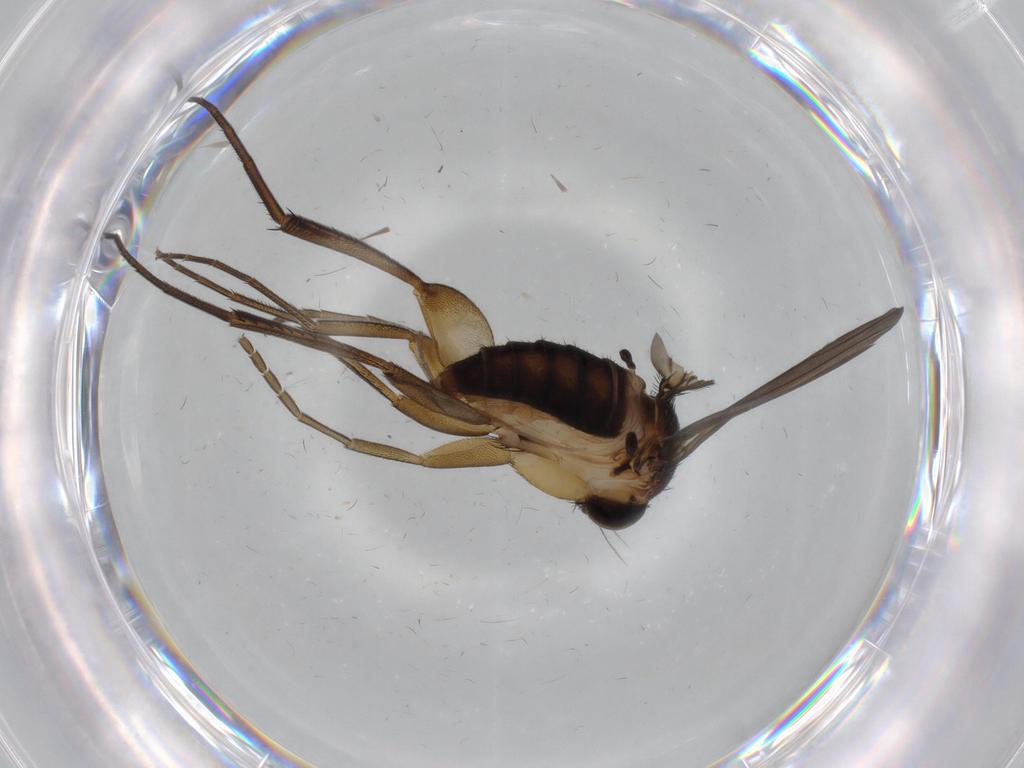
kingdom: Animalia
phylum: Arthropoda
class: Insecta
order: Diptera
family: Phoridae
